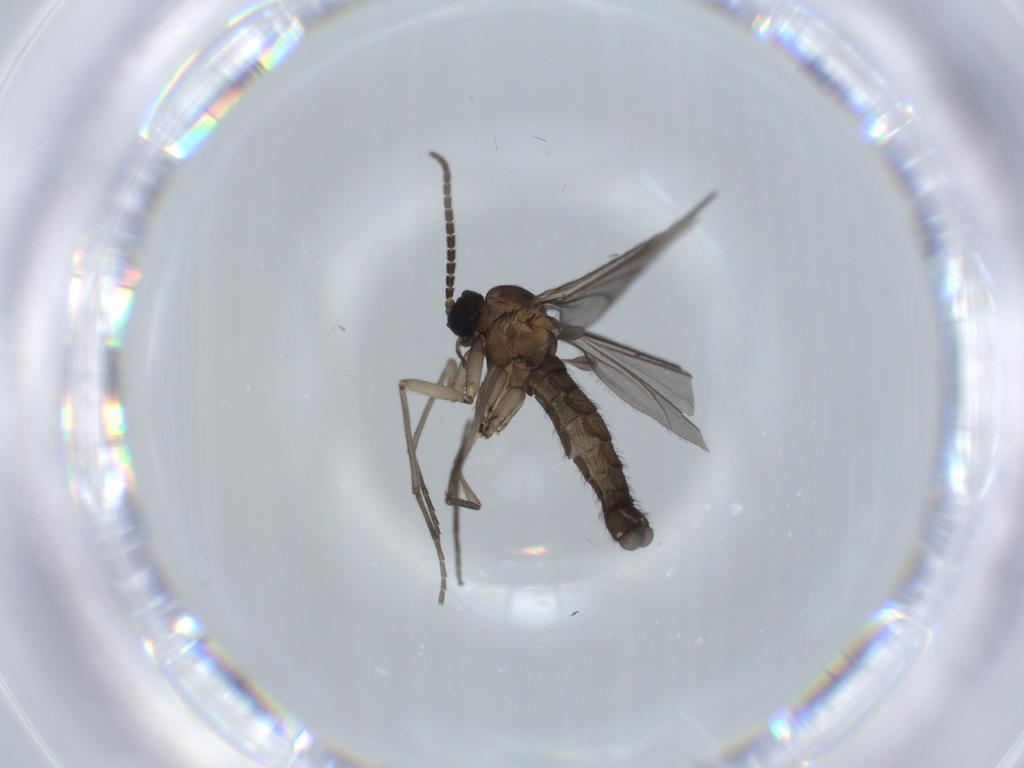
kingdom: Animalia
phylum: Arthropoda
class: Insecta
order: Diptera
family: Sciaridae
